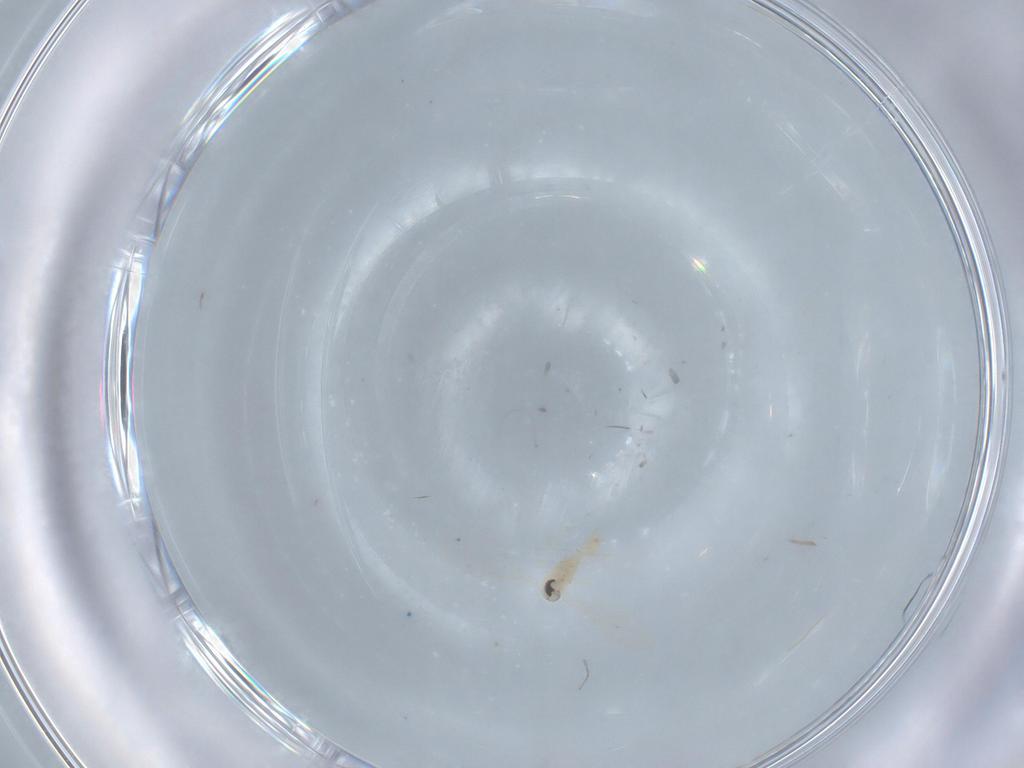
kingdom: Animalia
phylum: Arthropoda
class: Insecta
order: Diptera
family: Cecidomyiidae
